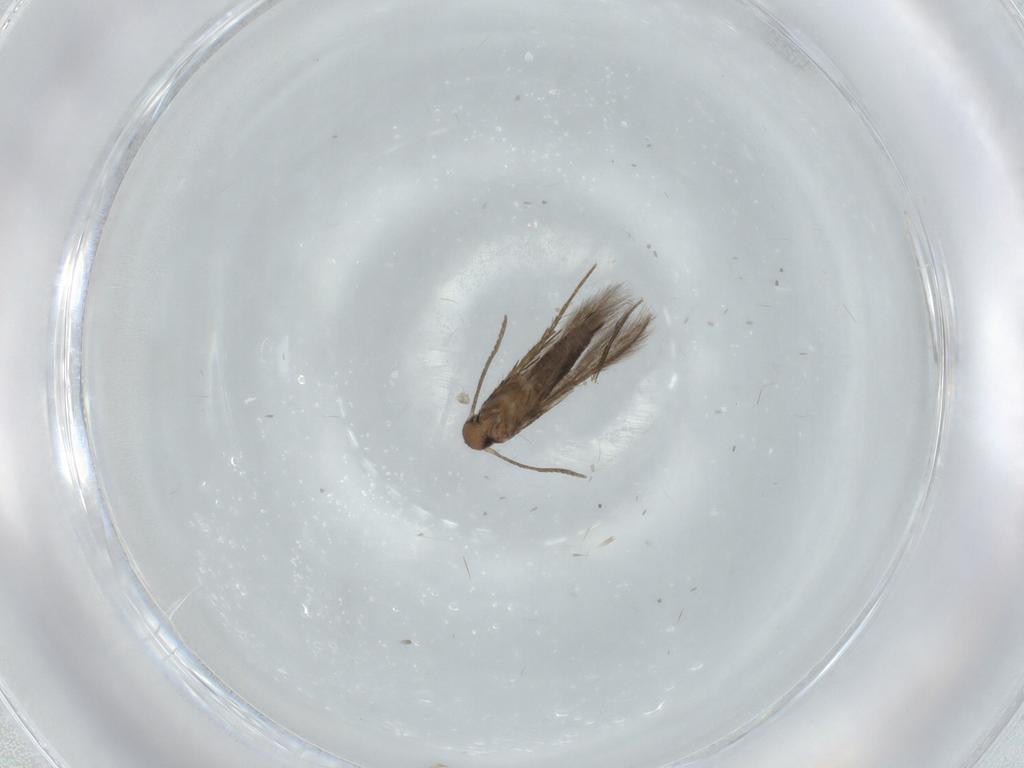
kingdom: Animalia
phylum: Arthropoda
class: Insecta
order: Lepidoptera
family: Pyralidae
